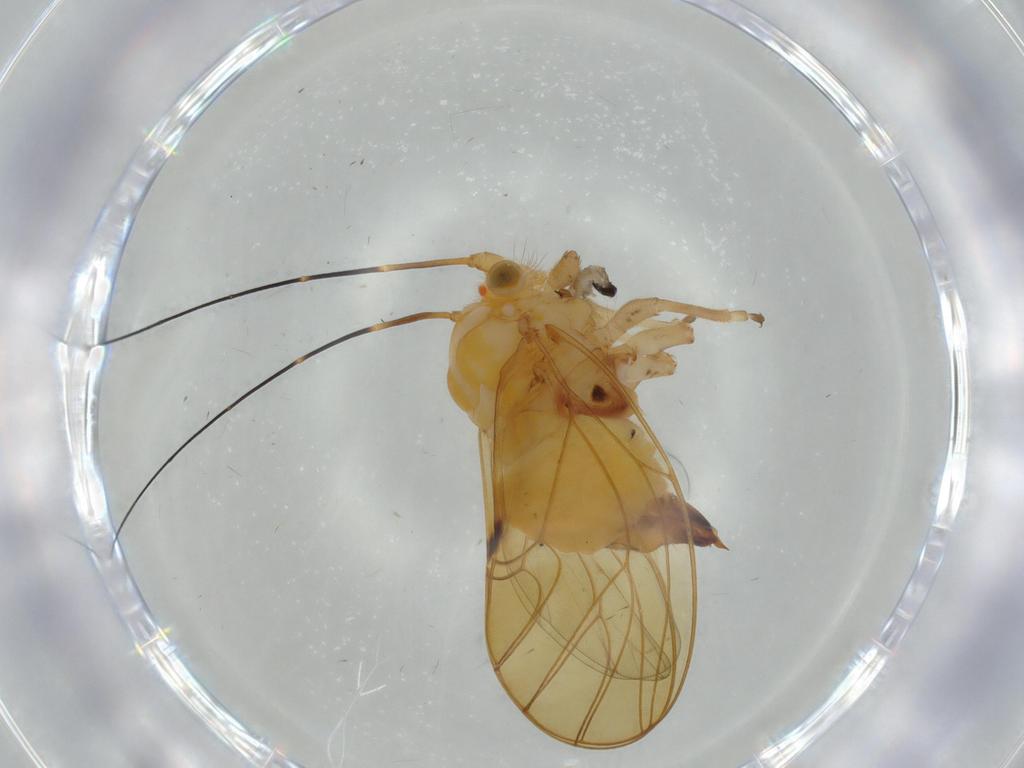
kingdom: Animalia
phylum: Arthropoda
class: Insecta
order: Hemiptera
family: Psyllidae
